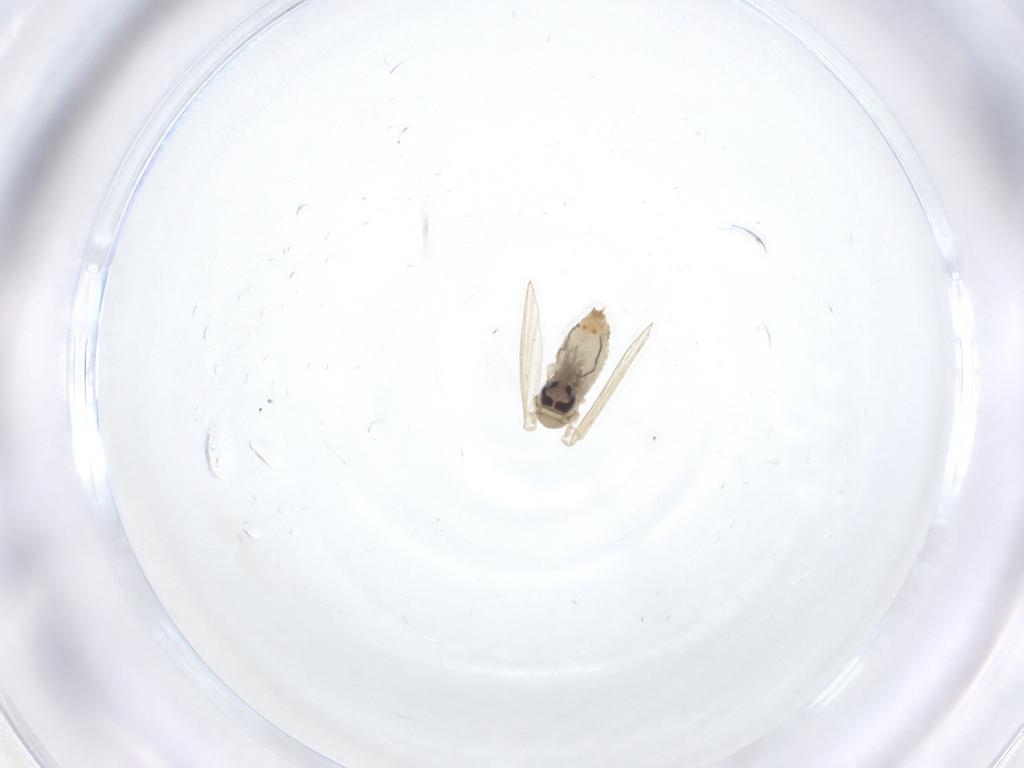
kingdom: Animalia
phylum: Arthropoda
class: Insecta
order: Diptera
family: Psychodidae
